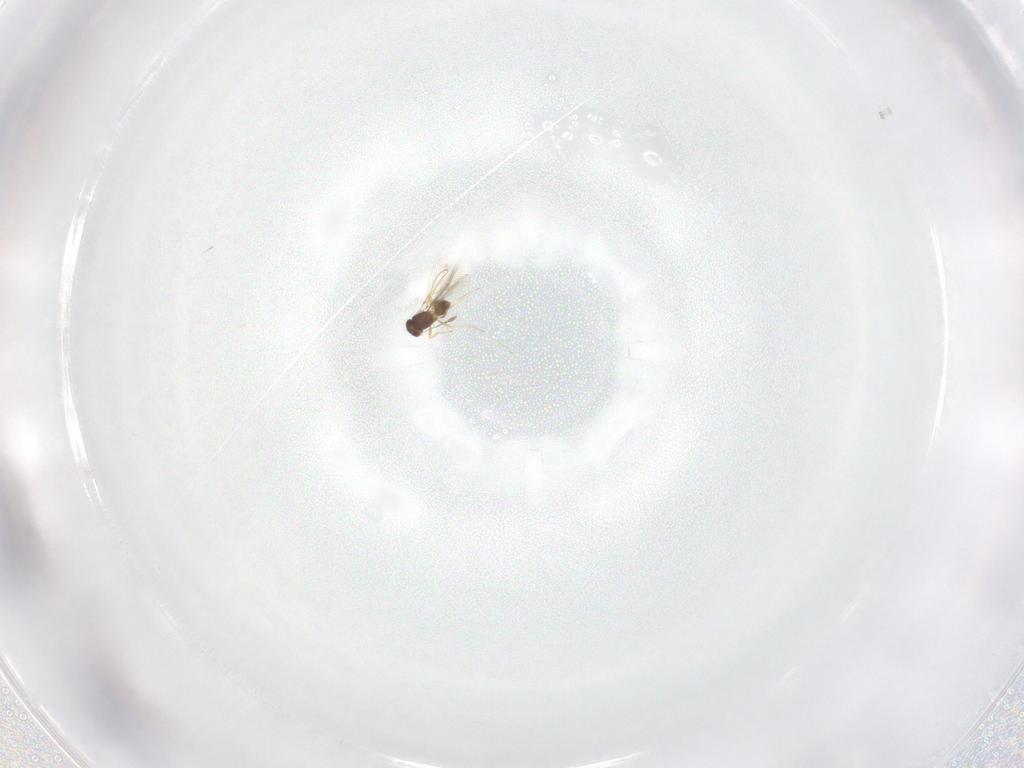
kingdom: Animalia
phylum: Arthropoda
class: Insecta
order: Hymenoptera
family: Mymaridae
